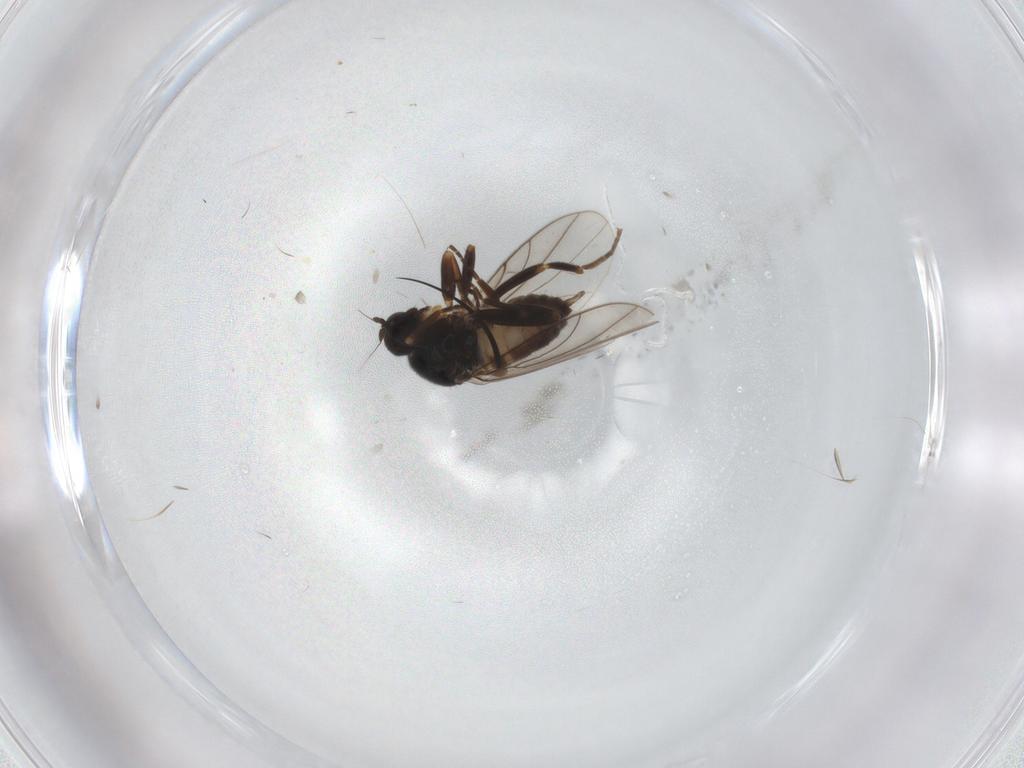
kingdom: Animalia
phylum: Arthropoda
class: Insecta
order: Diptera
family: Hybotidae
